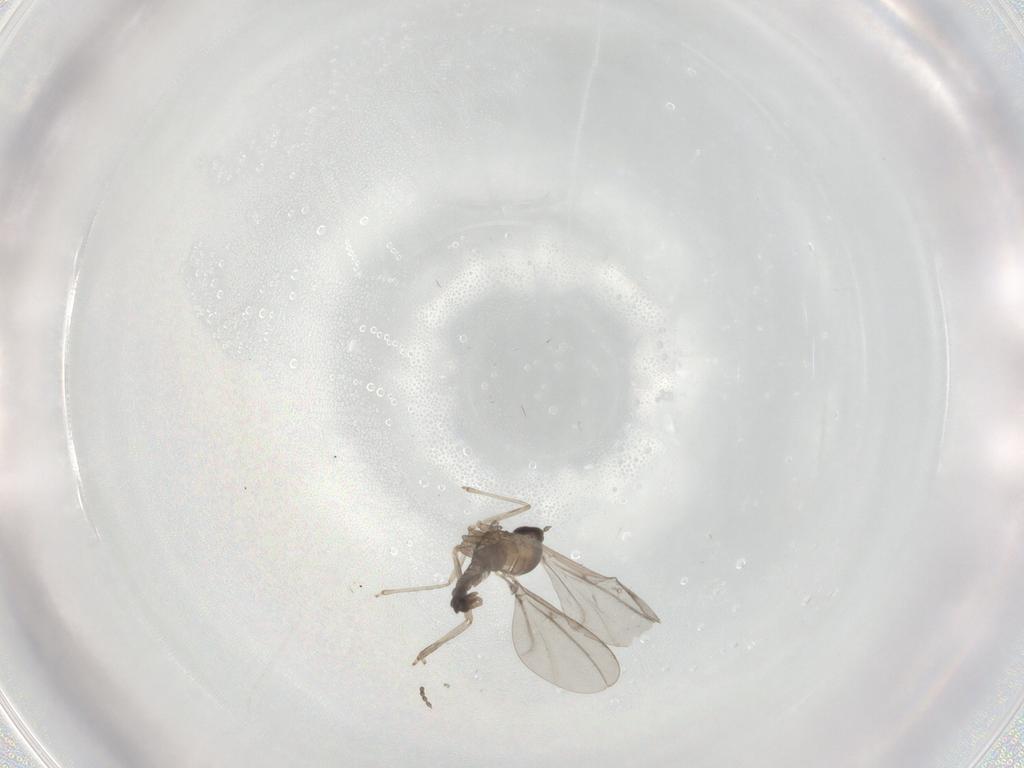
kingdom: Animalia
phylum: Arthropoda
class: Insecta
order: Diptera
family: Cecidomyiidae
